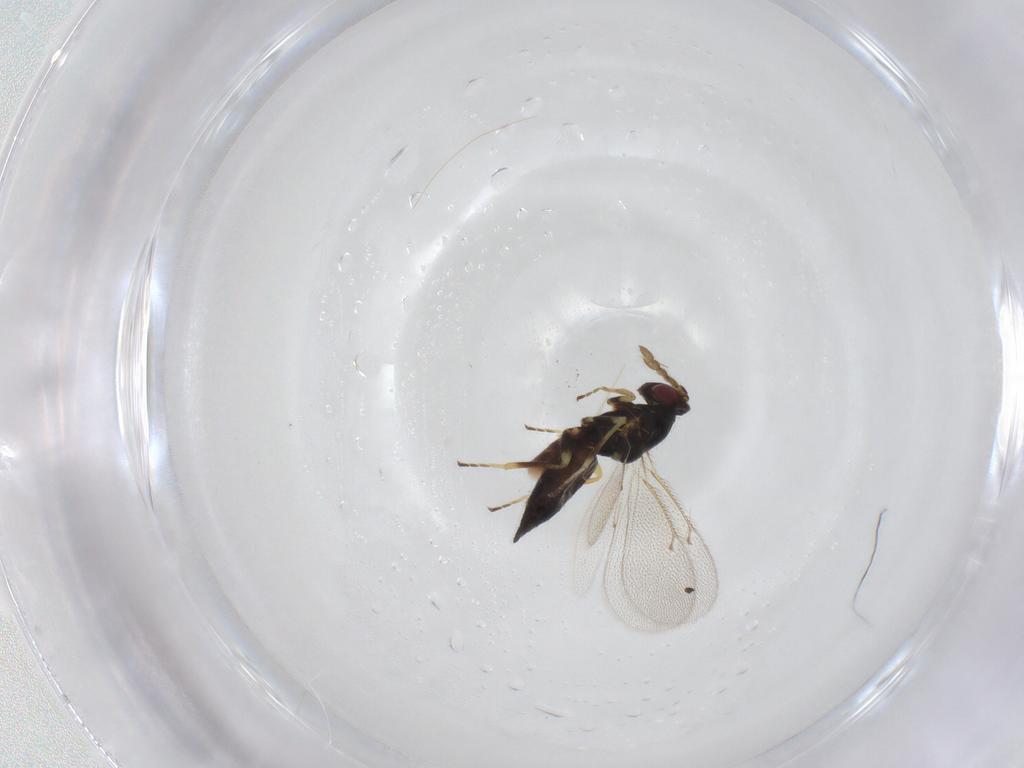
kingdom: Animalia
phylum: Arthropoda
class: Insecta
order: Hymenoptera
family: Eulophidae
